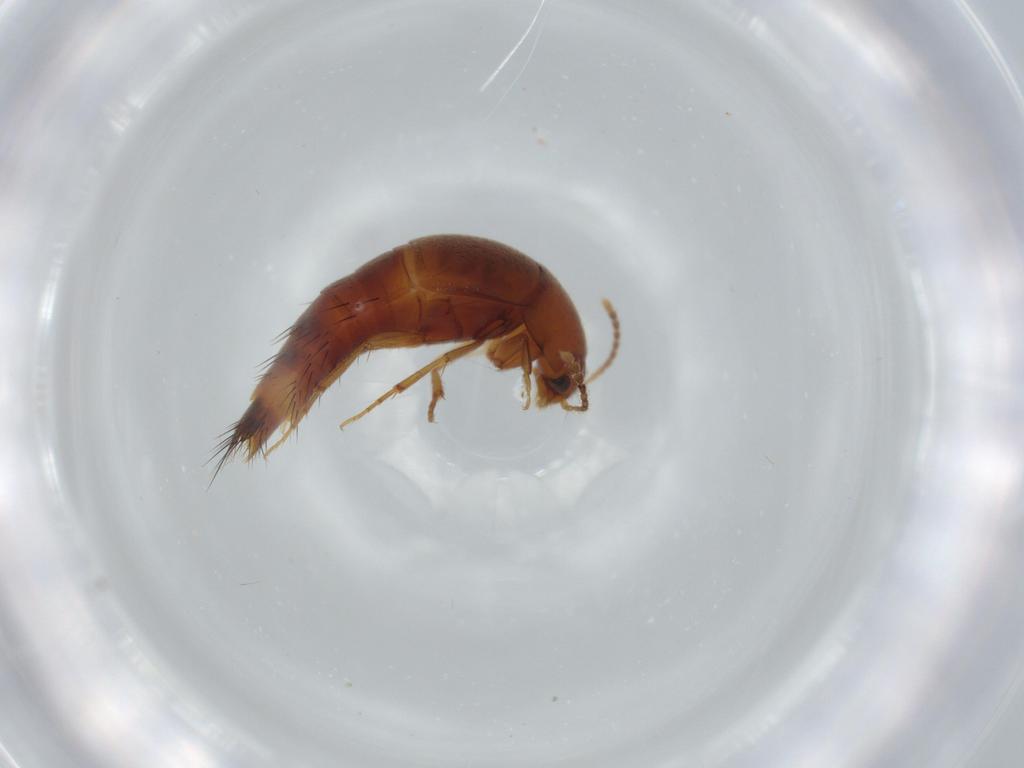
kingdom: Animalia
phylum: Arthropoda
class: Insecta
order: Coleoptera
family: Staphylinidae
